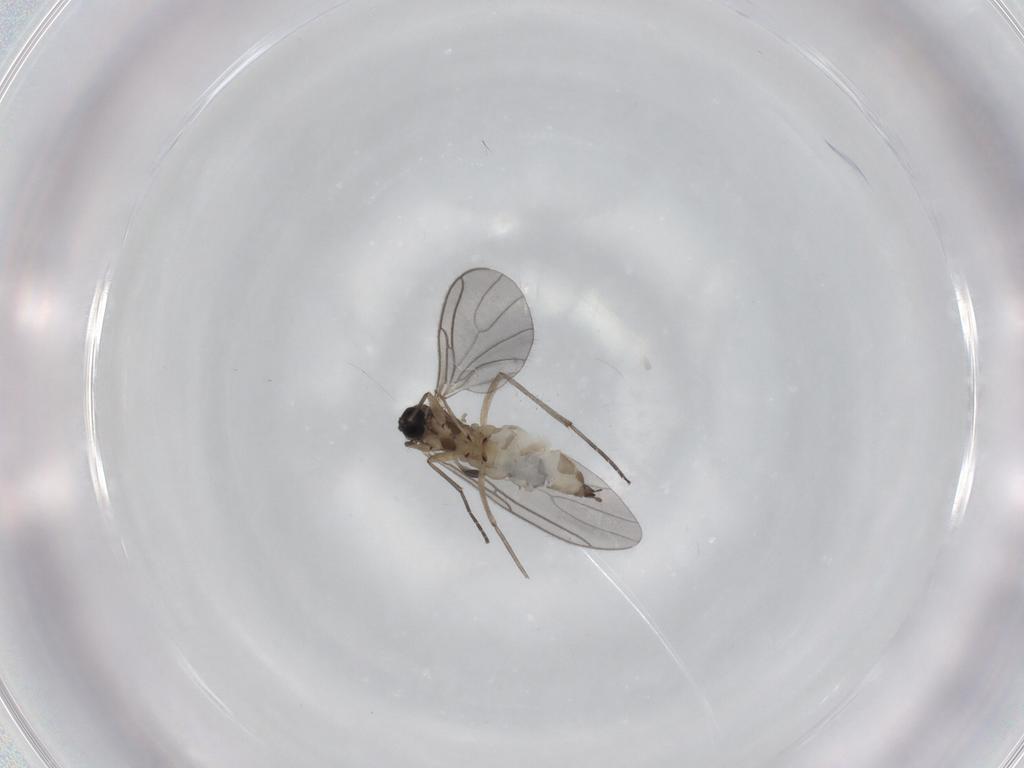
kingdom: Animalia
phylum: Arthropoda
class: Insecta
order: Diptera
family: Sciaridae
